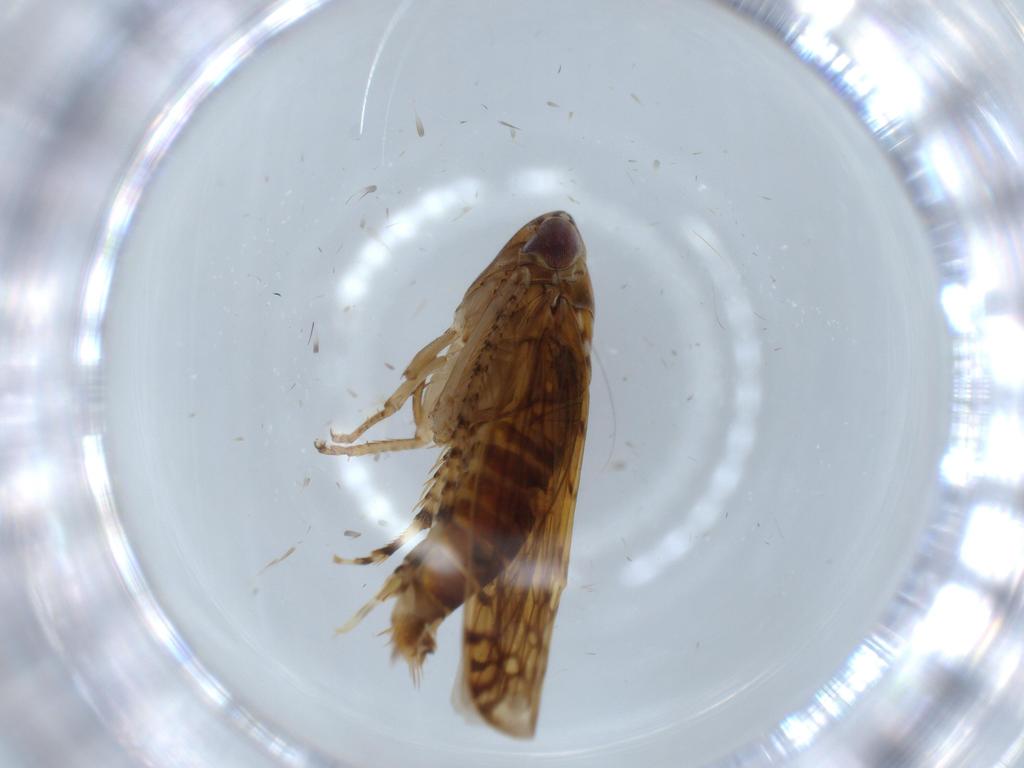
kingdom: Animalia
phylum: Arthropoda
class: Insecta
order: Hemiptera
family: Cicadellidae
